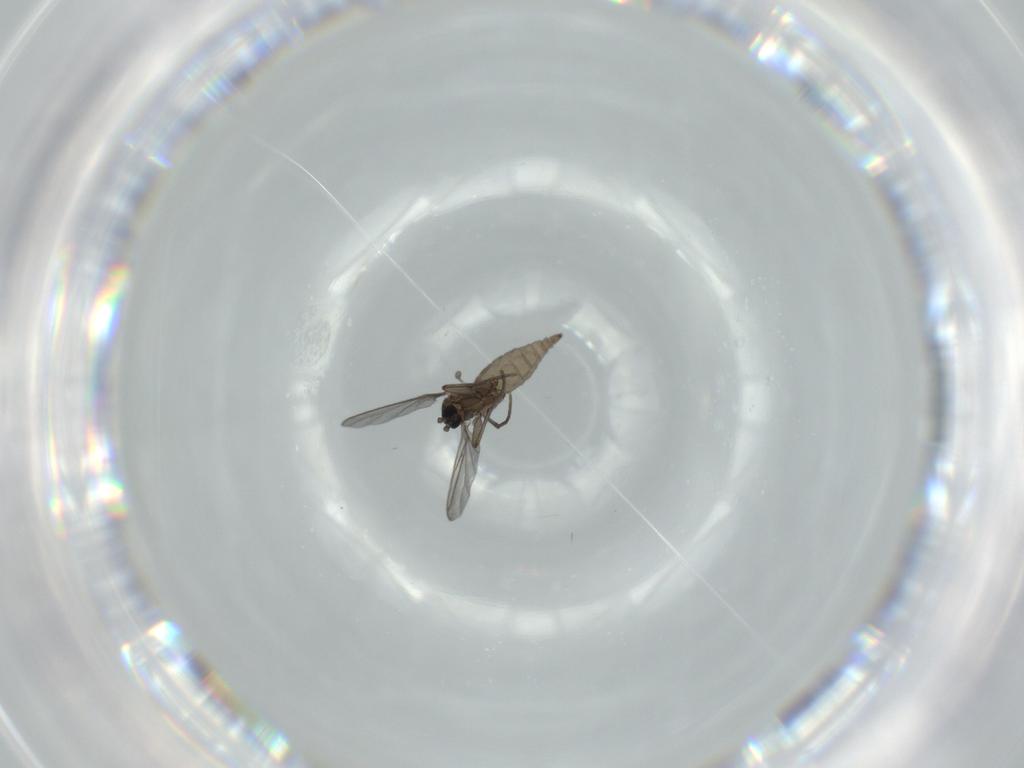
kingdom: Animalia
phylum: Arthropoda
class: Insecta
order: Diptera
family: Sciaridae
